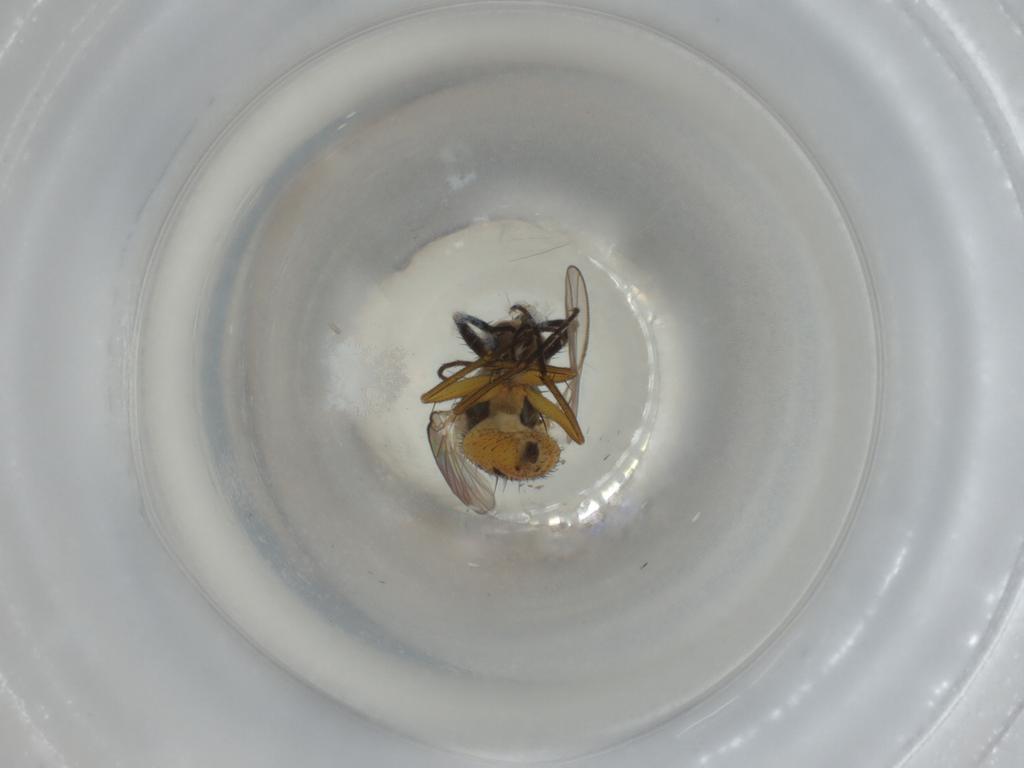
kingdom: Animalia
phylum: Arthropoda
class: Insecta
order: Diptera
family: Muscidae
